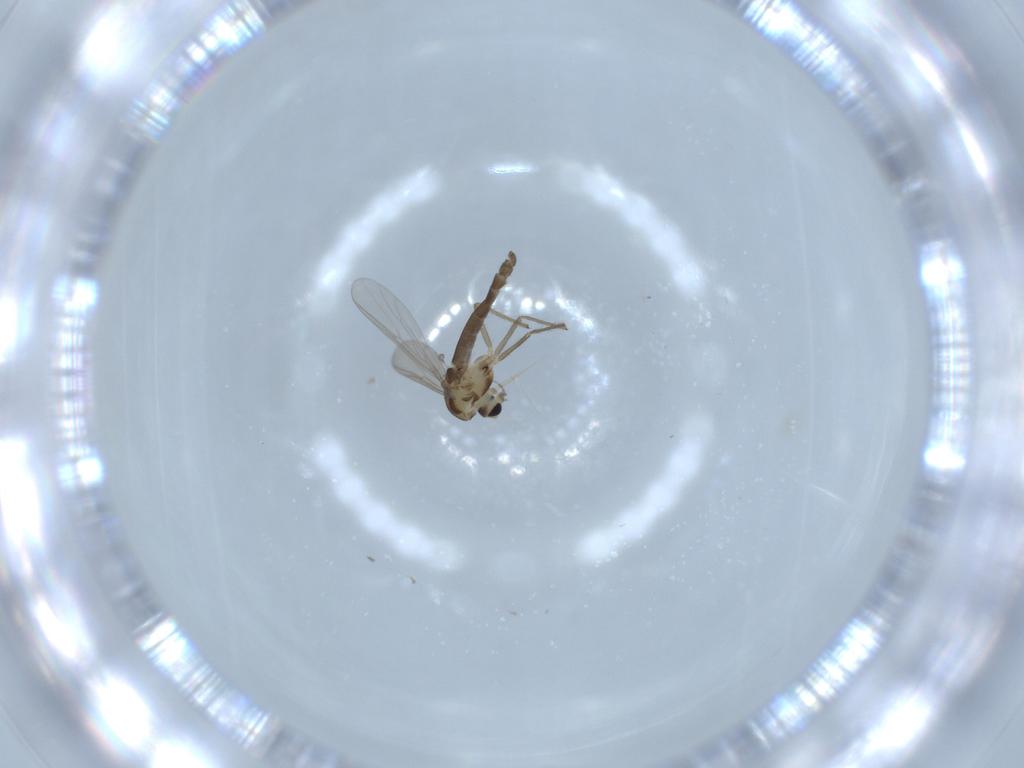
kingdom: Animalia
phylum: Arthropoda
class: Insecta
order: Diptera
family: Chironomidae
